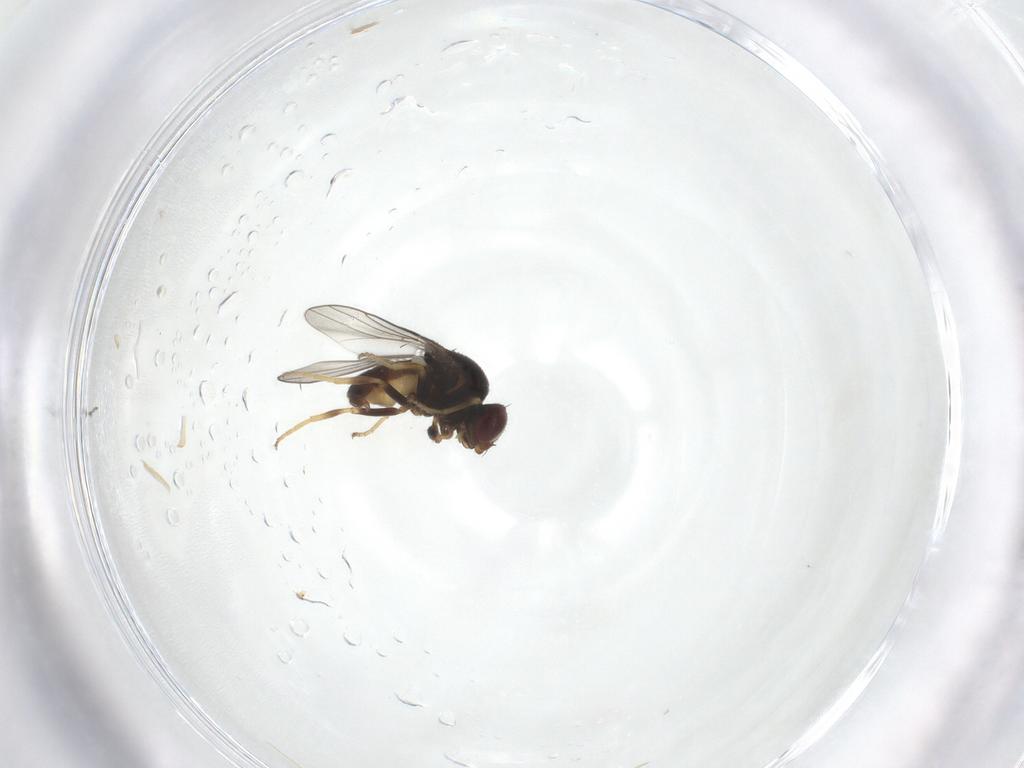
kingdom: Animalia
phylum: Arthropoda
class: Insecta
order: Diptera
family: Chloropidae
